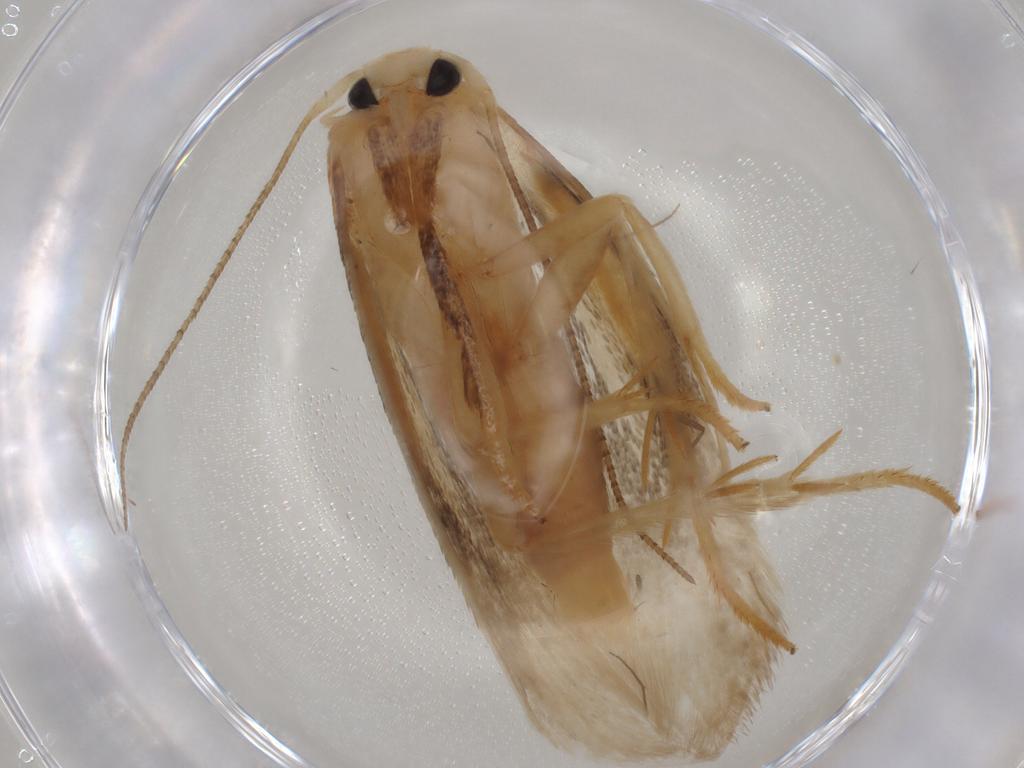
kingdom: Animalia
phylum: Arthropoda
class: Insecta
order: Lepidoptera
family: Geometridae
